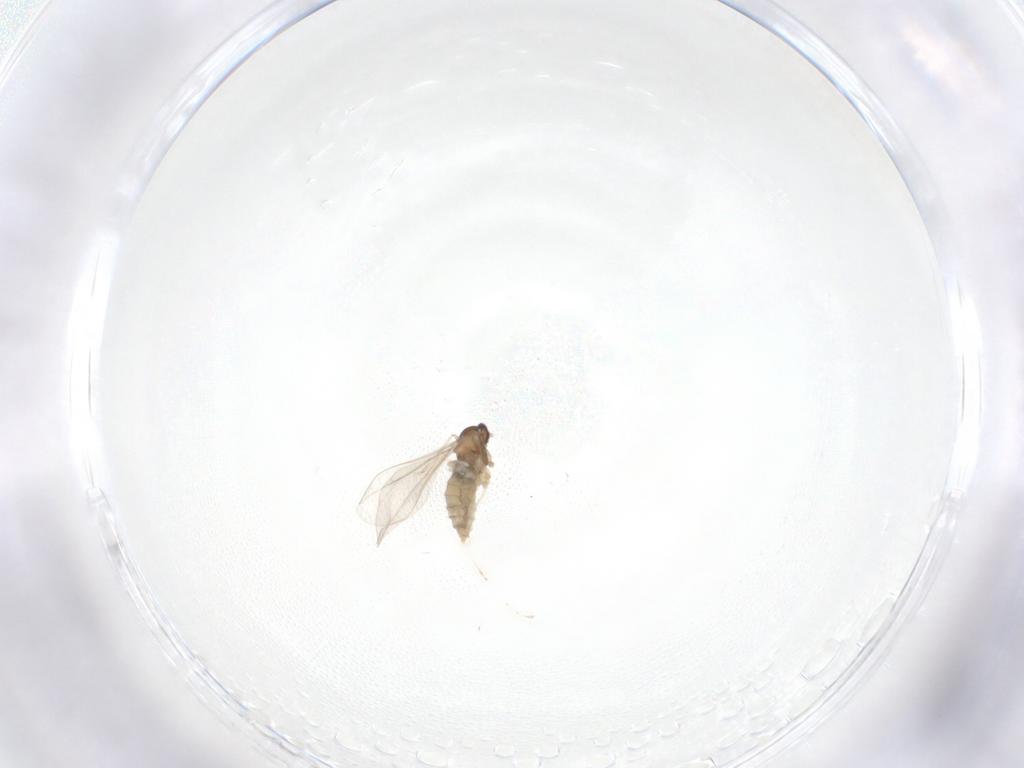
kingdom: Animalia
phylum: Arthropoda
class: Insecta
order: Diptera
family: Cecidomyiidae
